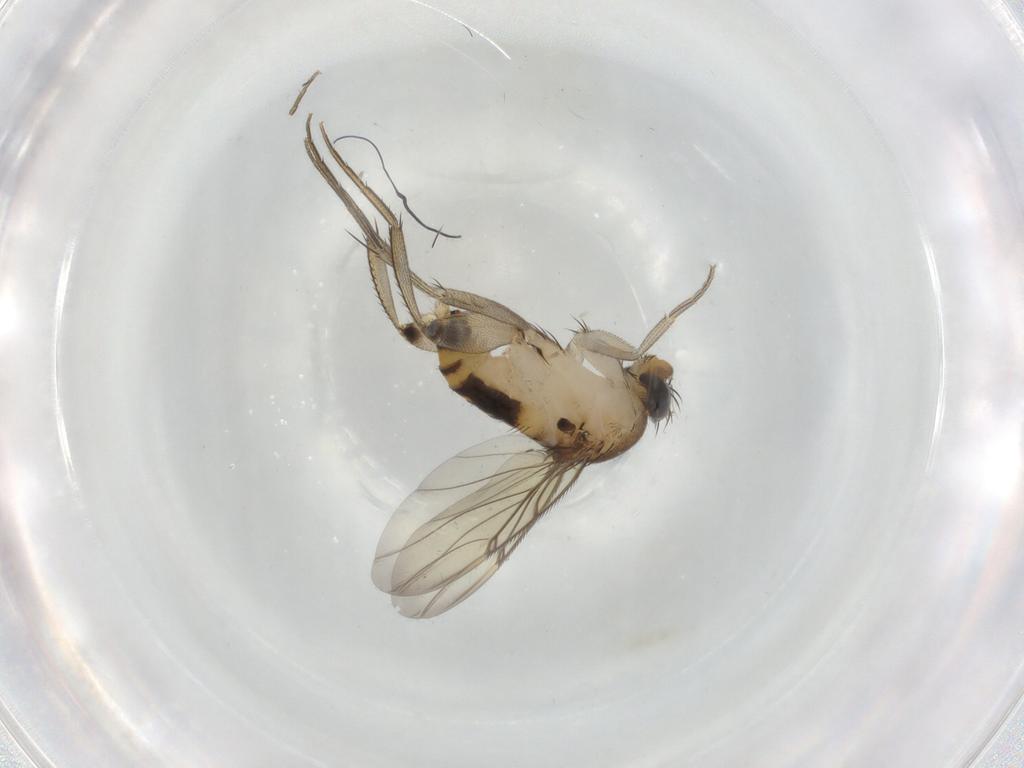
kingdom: Animalia
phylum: Arthropoda
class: Insecta
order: Diptera
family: Phoridae
